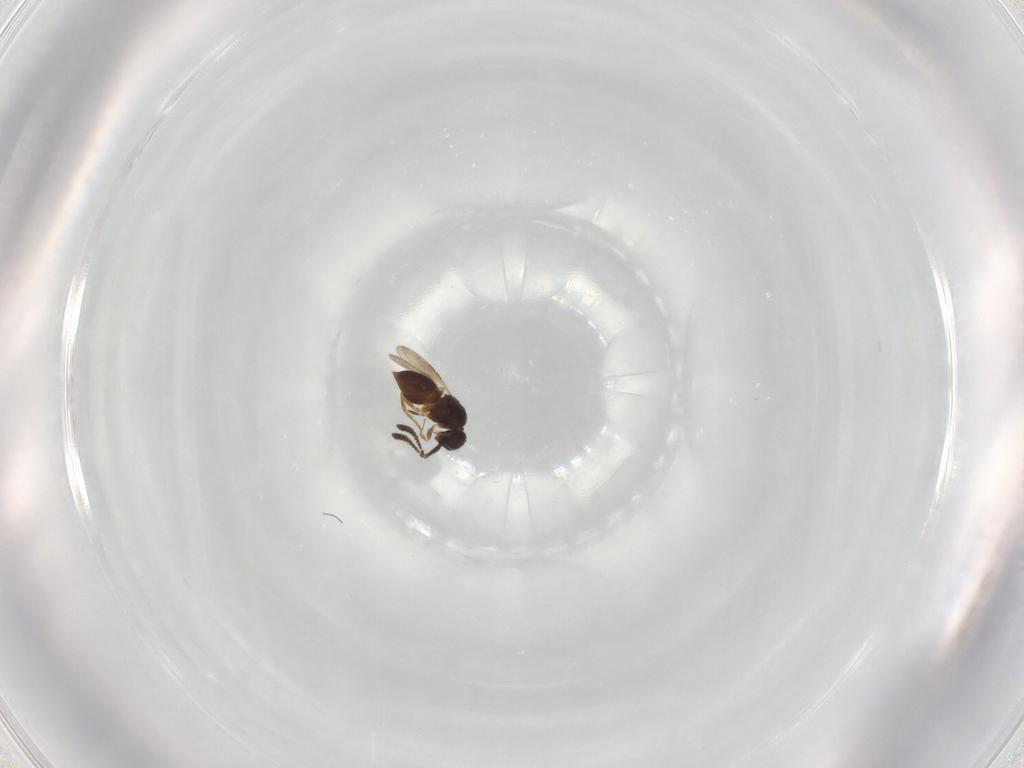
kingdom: Animalia
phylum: Arthropoda
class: Insecta
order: Hymenoptera
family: Ceraphronidae
